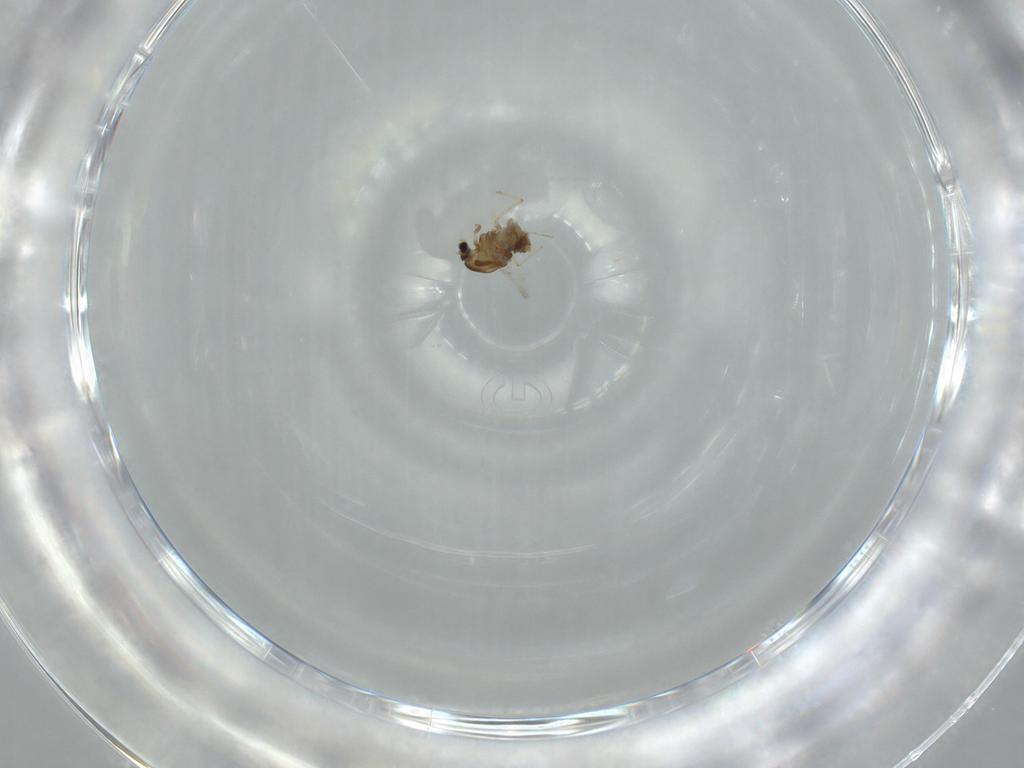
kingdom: Animalia
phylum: Arthropoda
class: Insecta
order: Diptera
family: Chironomidae
